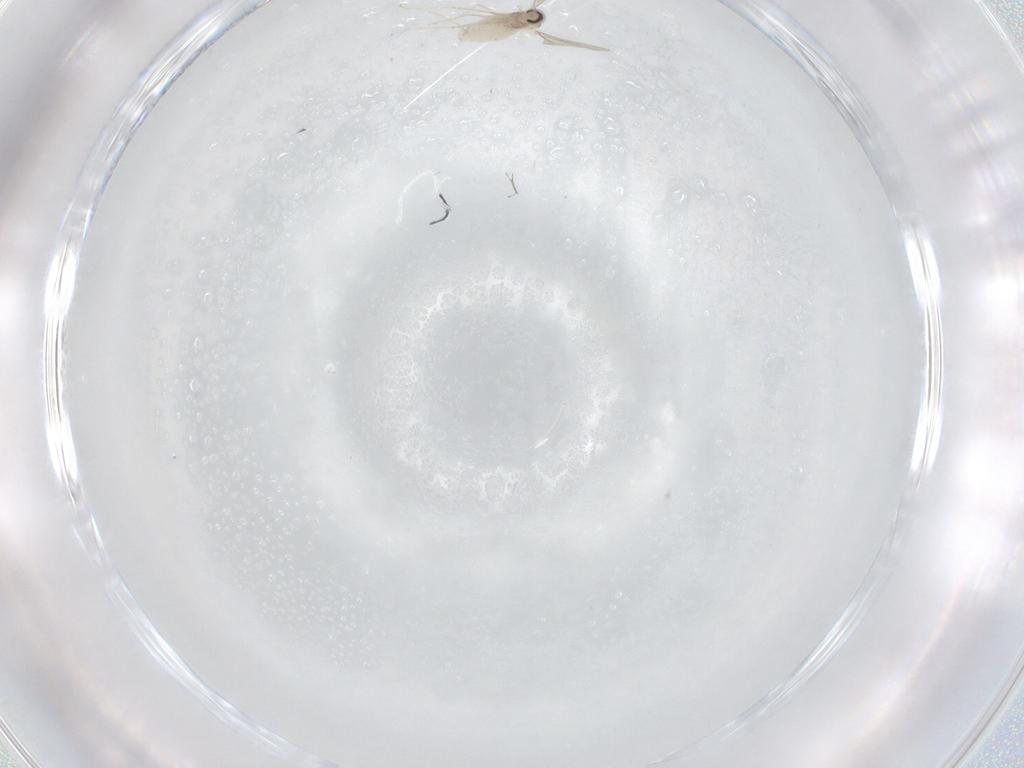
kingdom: Animalia
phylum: Arthropoda
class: Insecta
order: Diptera
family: Cecidomyiidae
